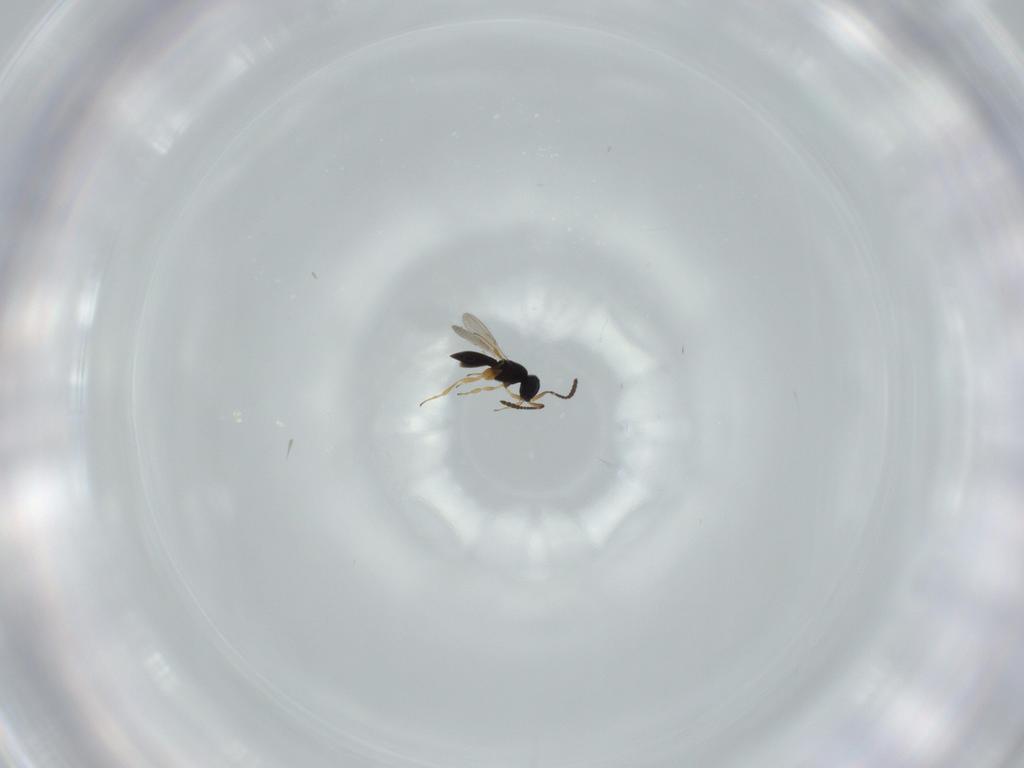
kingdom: Animalia
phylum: Arthropoda
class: Insecta
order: Hymenoptera
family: Scelionidae
